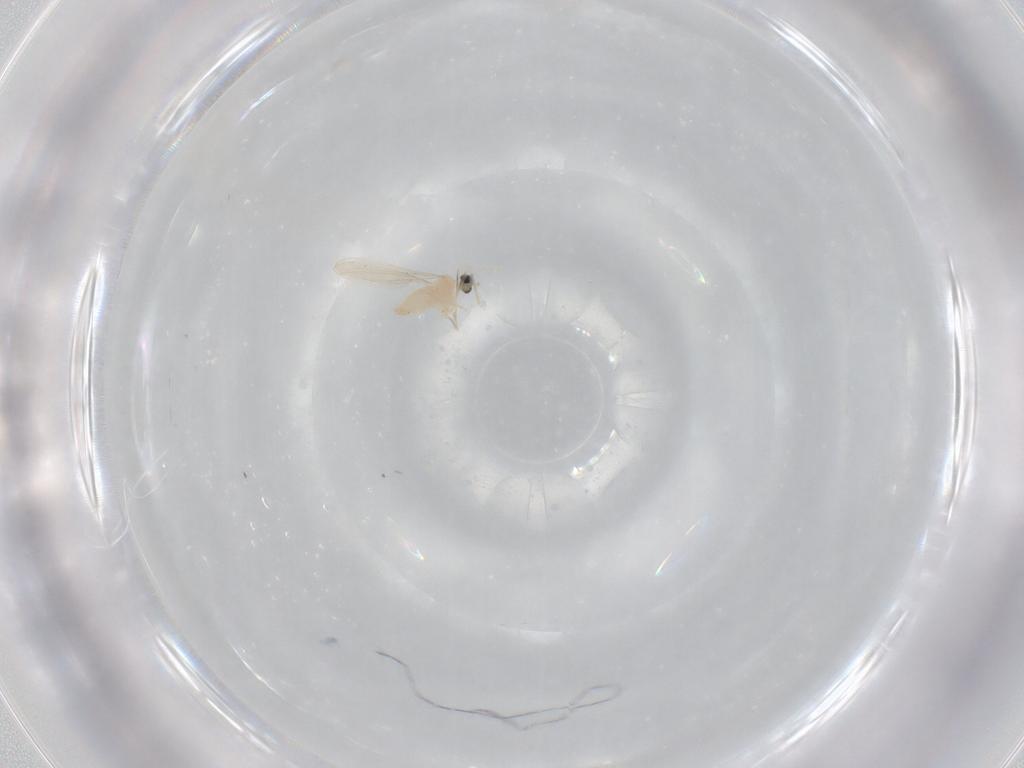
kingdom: Animalia
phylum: Arthropoda
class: Insecta
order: Diptera
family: Cecidomyiidae
